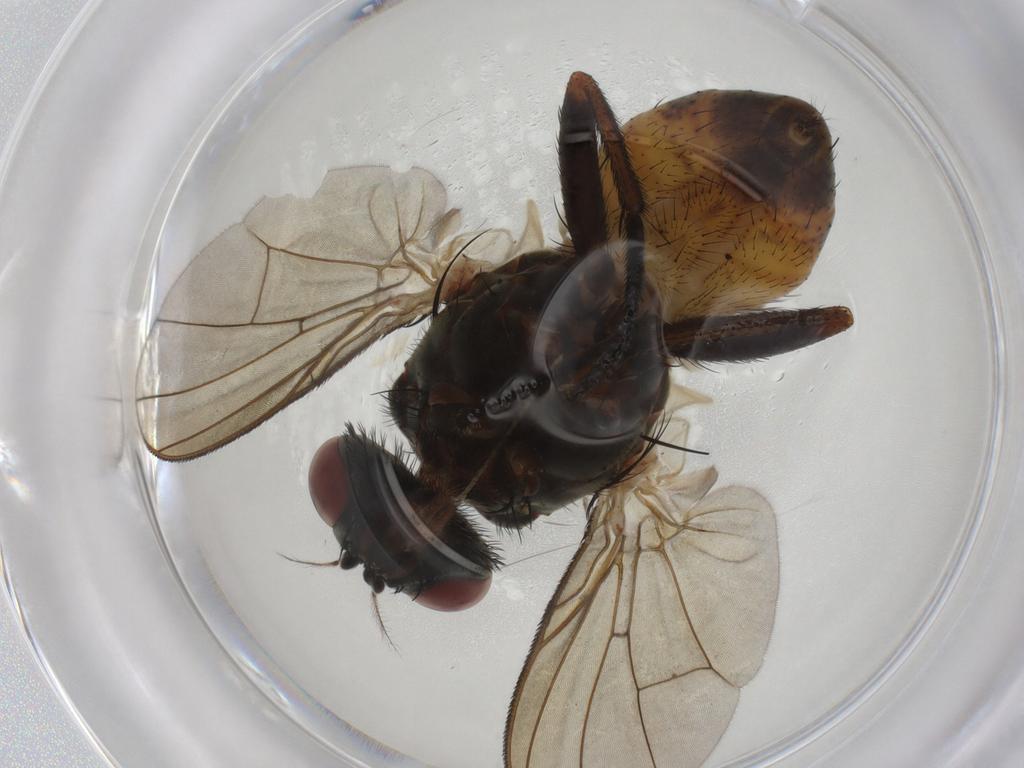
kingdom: Animalia
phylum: Arthropoda
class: Insecta
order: Diptera
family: Muscidae
